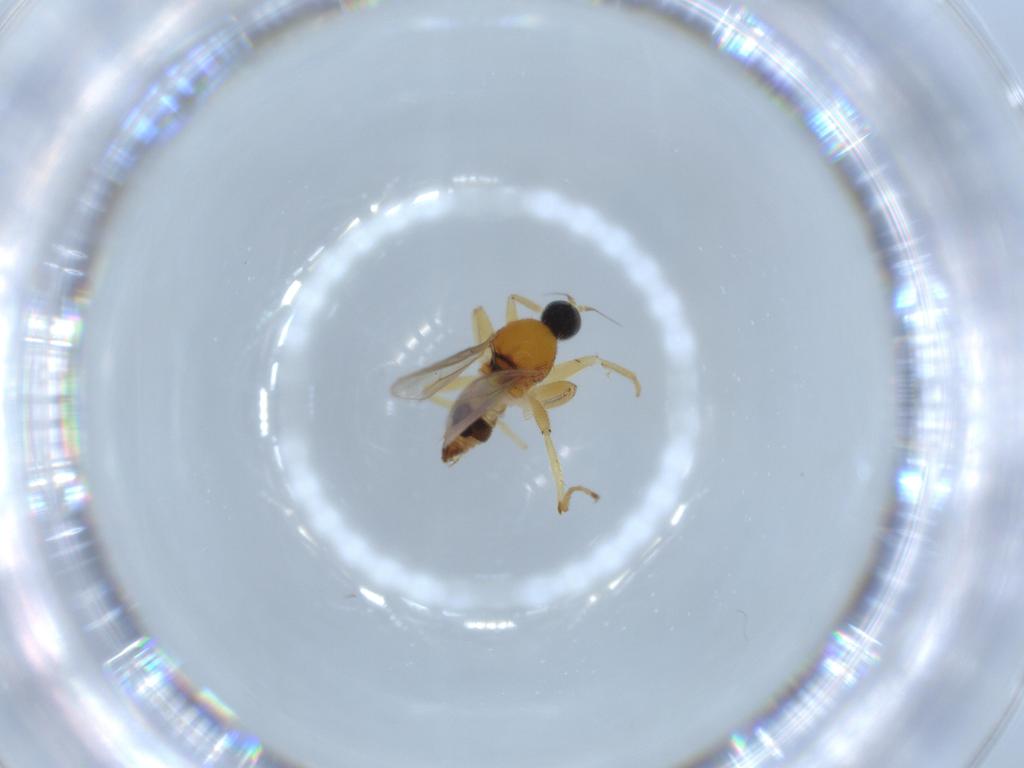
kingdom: Animalia
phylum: Arthropoda
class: Insecta
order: Diptera
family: Hybotidae
